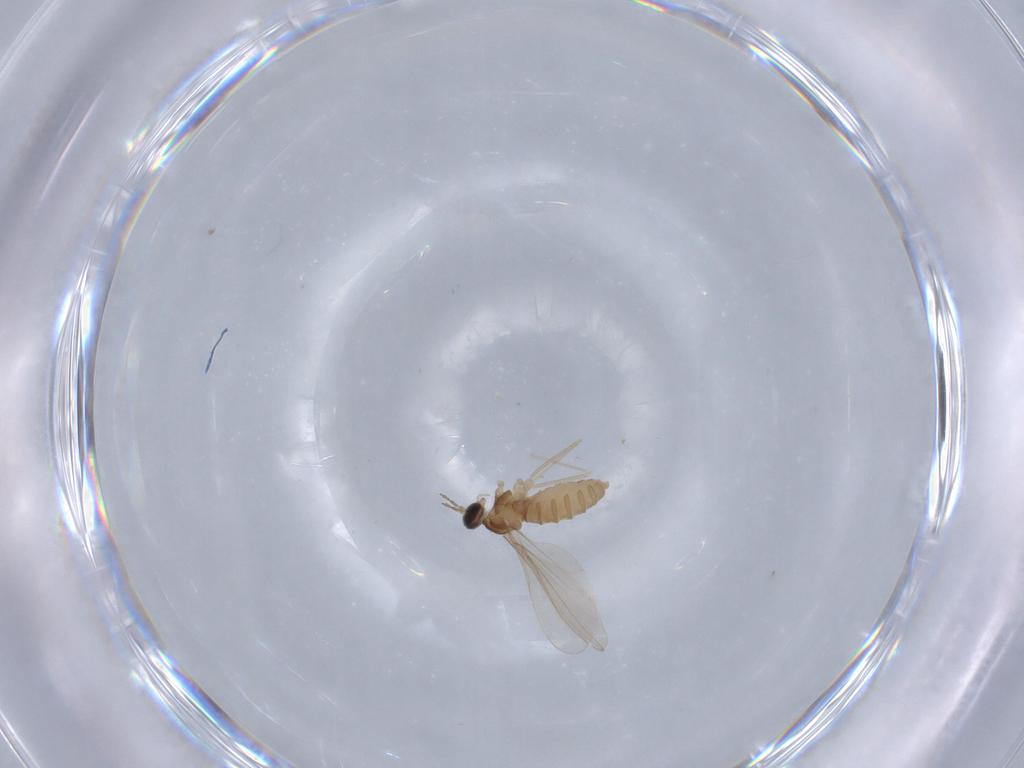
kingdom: Animalia
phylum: Arthropoda
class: Insecta
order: Diptera
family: Cecidomyiidae
